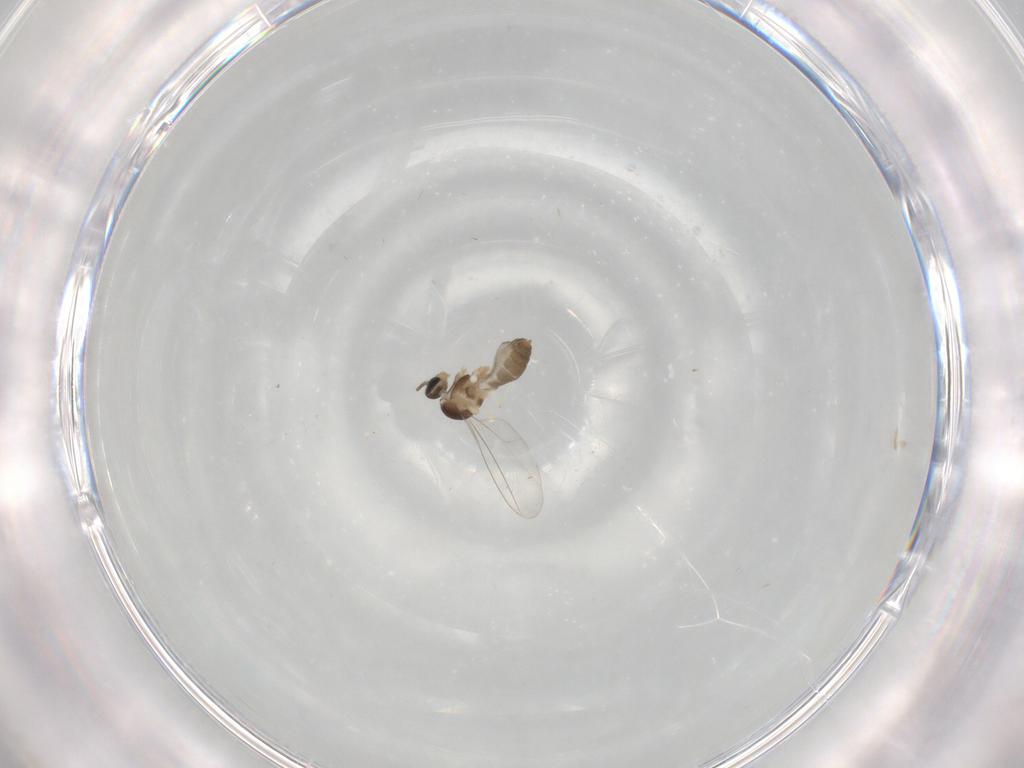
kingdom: Animalia
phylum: Arthropoda
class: Insecta
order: Diptera
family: Cecidomyiidae
